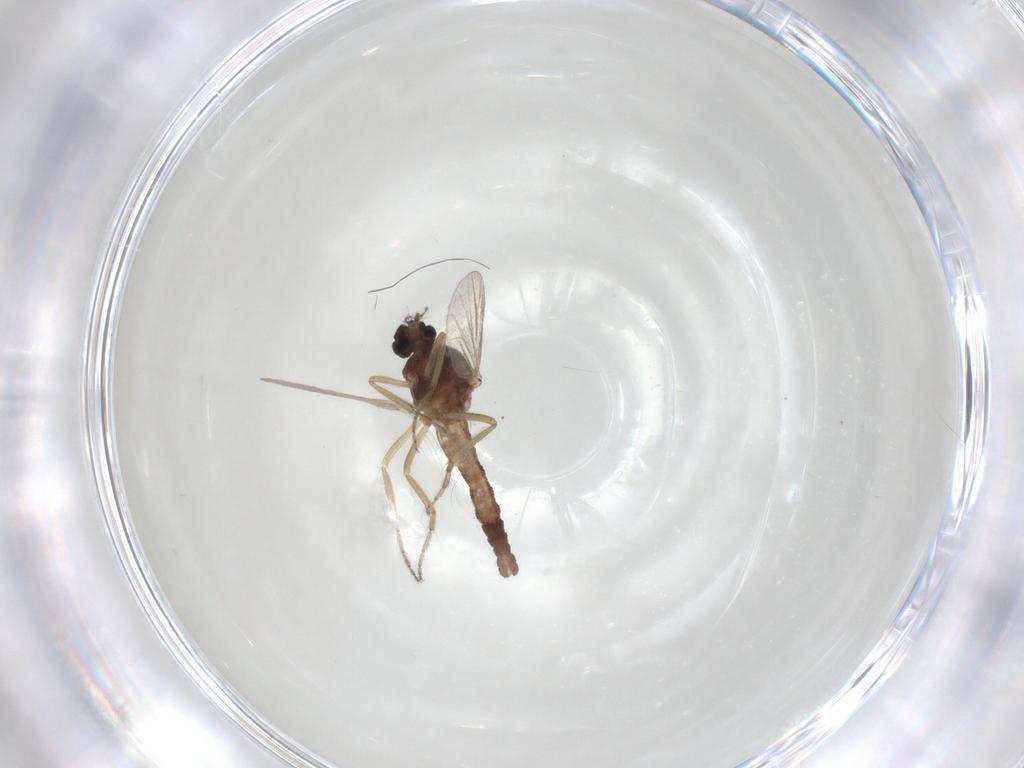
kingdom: Animalia
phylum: Arthropoda
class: Insecta
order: Diptera
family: Ceratopogonidae
